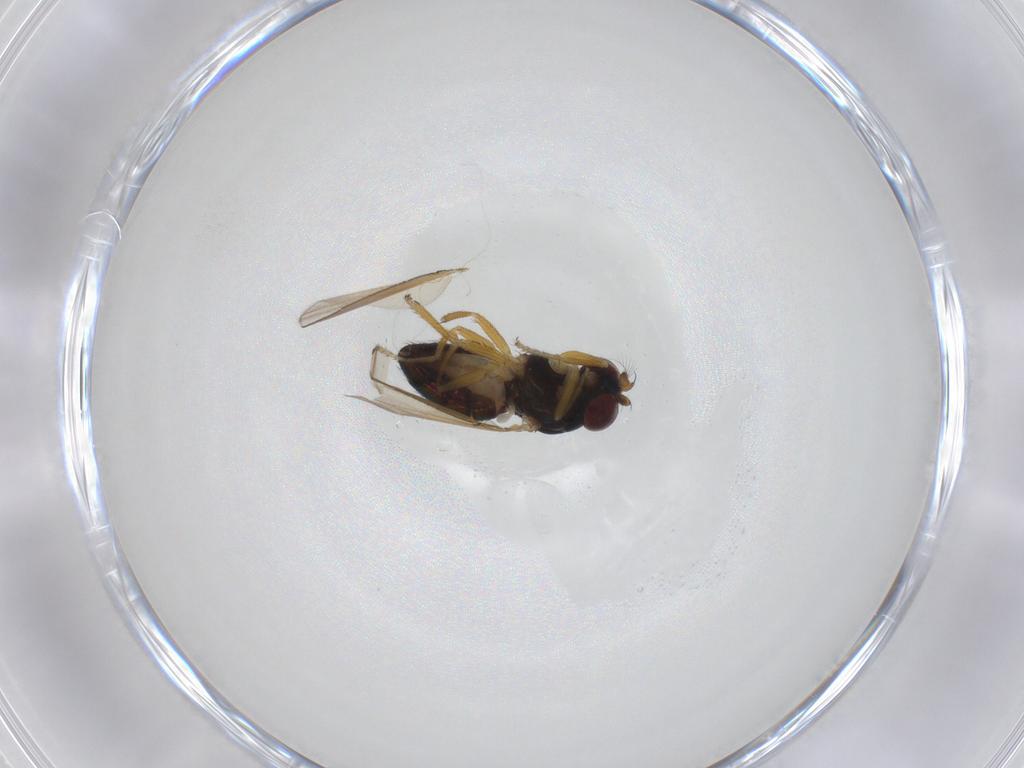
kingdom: Animalia
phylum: Arthropoda
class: Insecta
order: Diptera
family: Ephydridae
